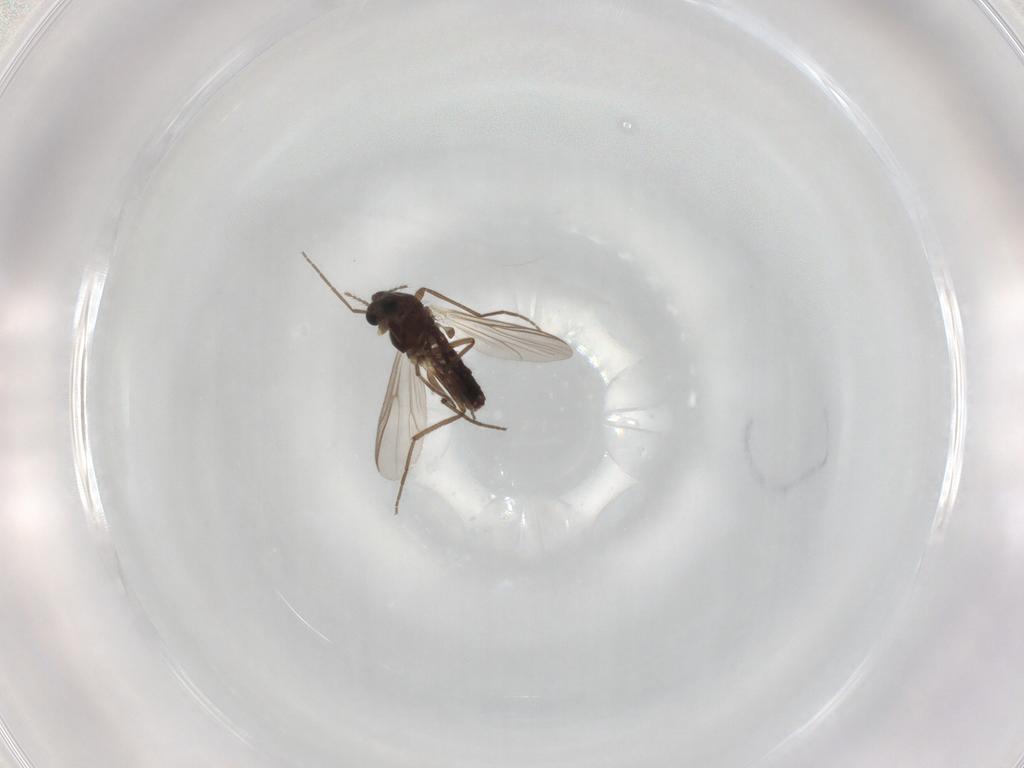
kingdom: Animalia
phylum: Arthropoda
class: Insecta
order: Diptera
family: Chironomidae
